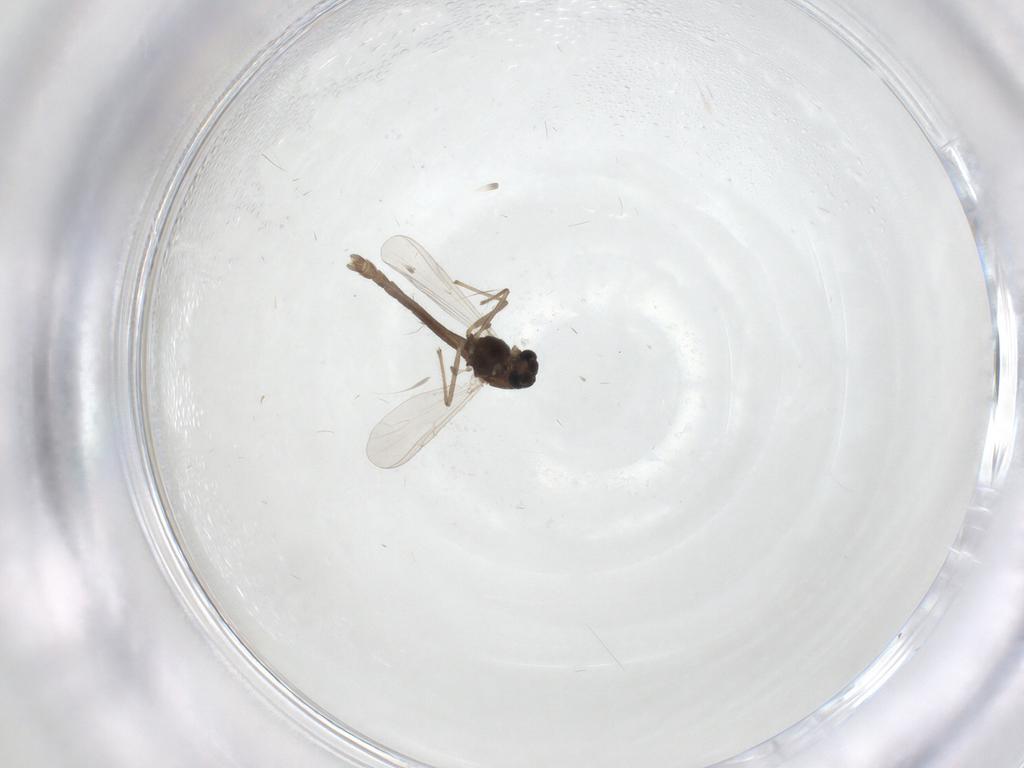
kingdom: Animalia
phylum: Arthropoda
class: Insecta
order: Diptera
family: Chironomidae
